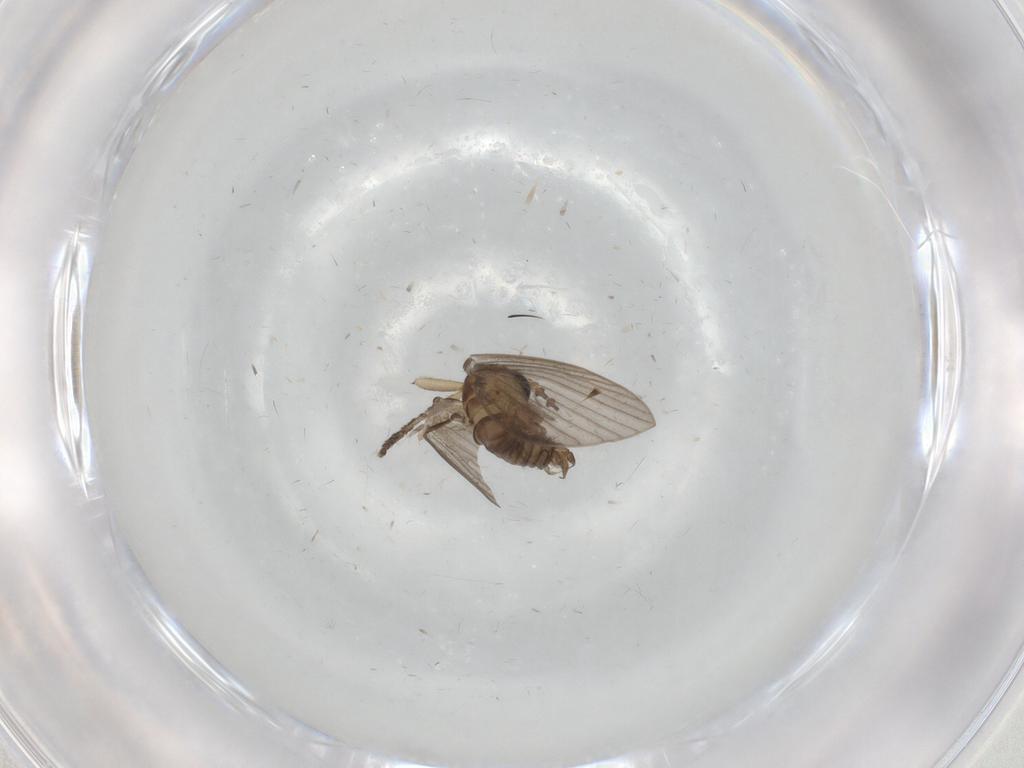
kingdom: Animalia
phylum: Arthropoda
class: Insecta
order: Diptera
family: Psychodidae
